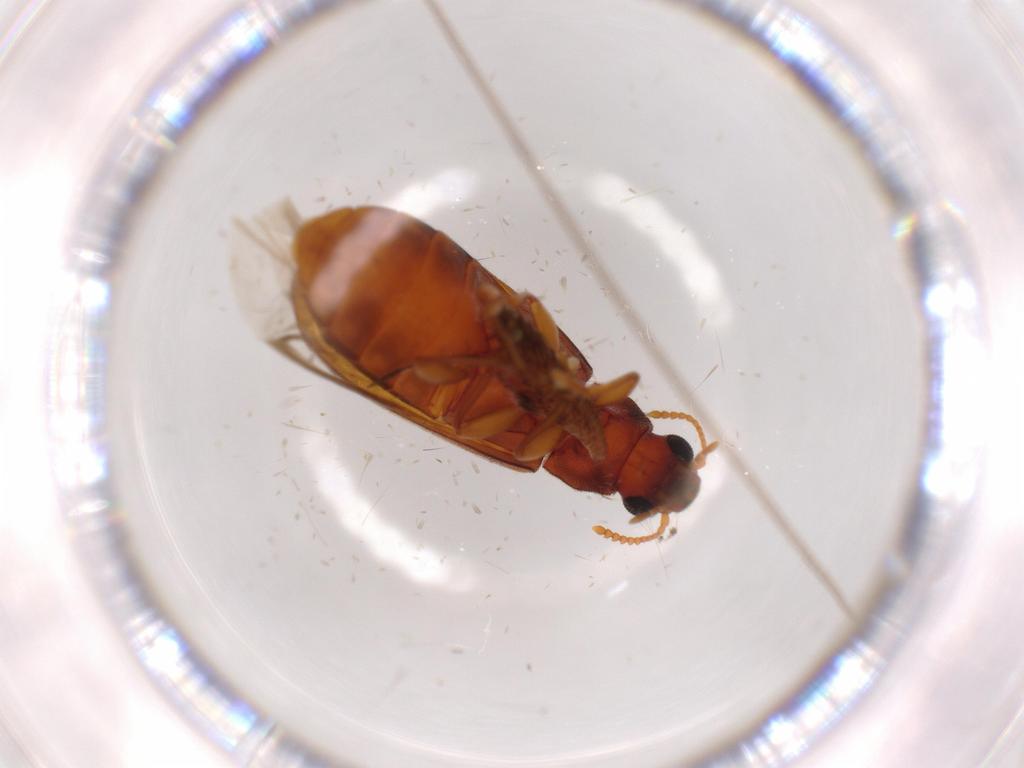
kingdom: Animalia
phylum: Arthropoda
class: Insecta
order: Coleoptera
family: Mycteridae
